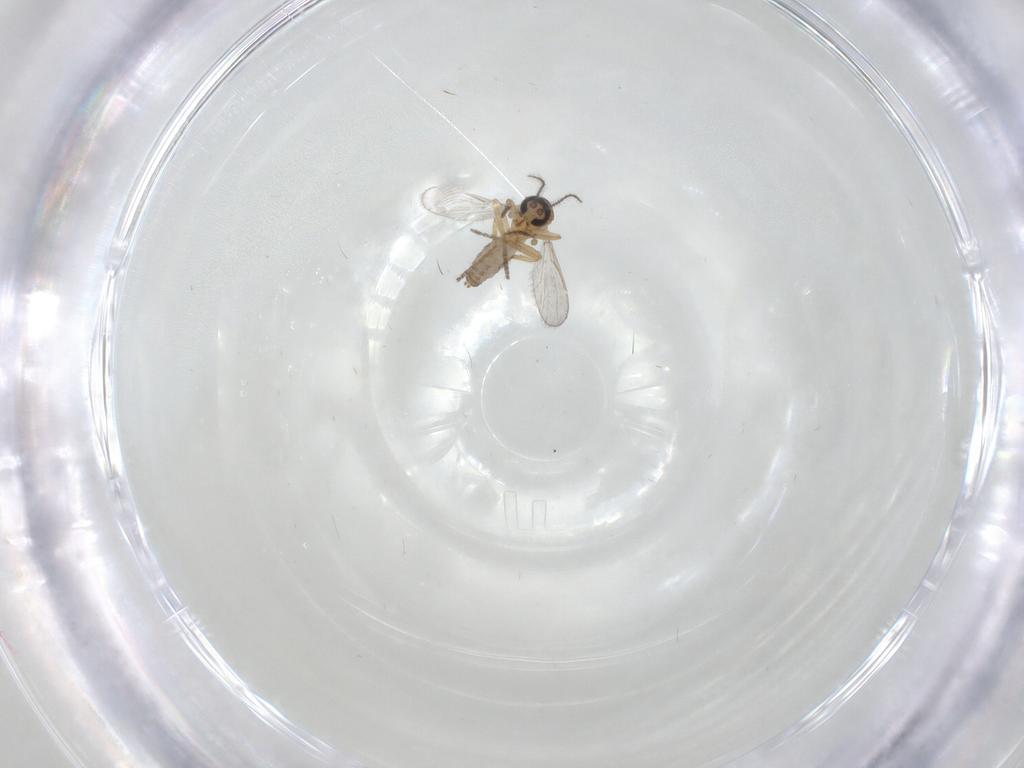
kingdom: Animalia
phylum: Arthropoda
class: Insecta
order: Diptera
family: Ceratopogonidae
